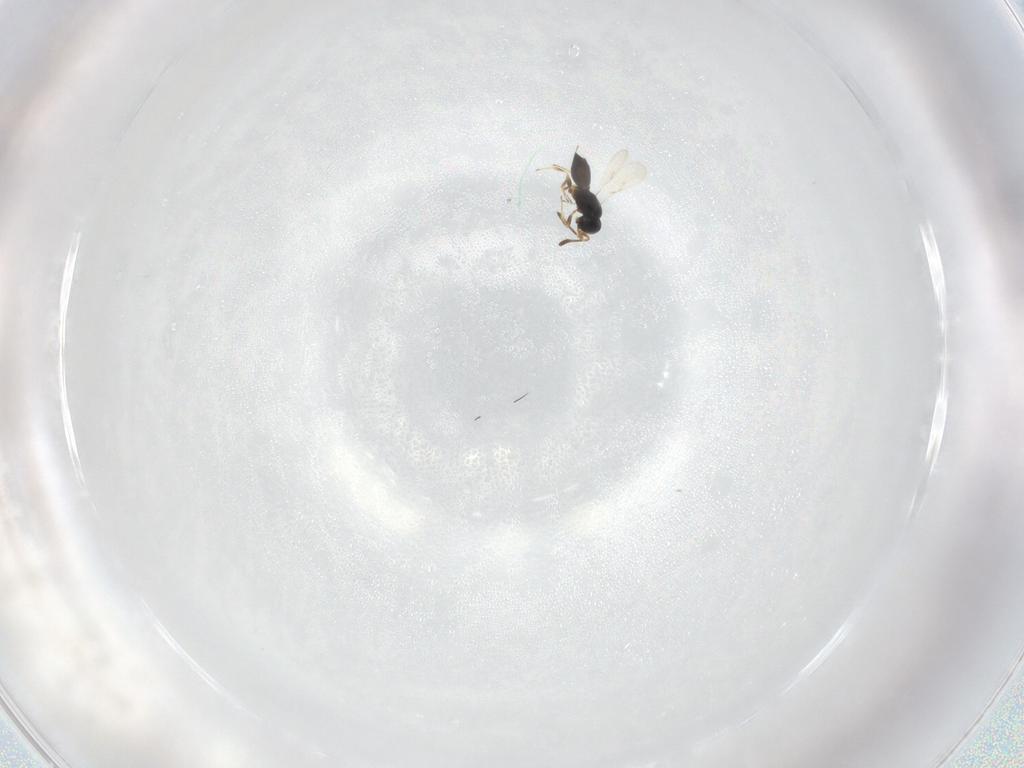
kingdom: Animalia
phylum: Arthropoda
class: Insecta
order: Hymenoptera
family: Scelionidae
